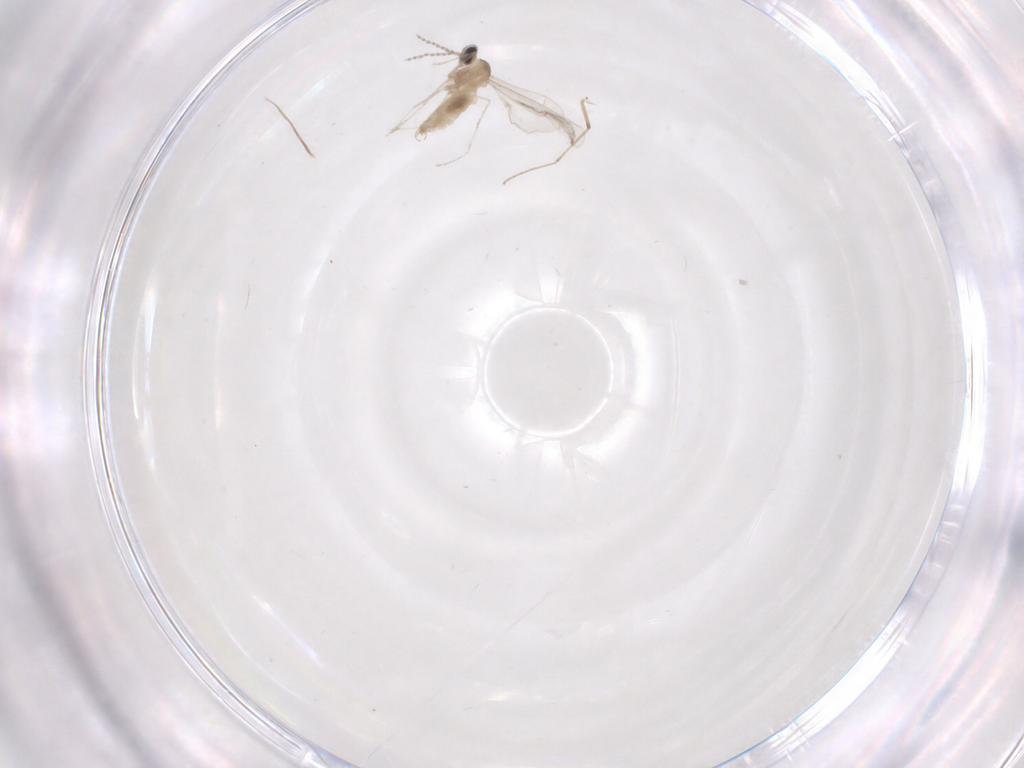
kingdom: Animalia
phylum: Arthropoda
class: Insecta
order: Diptera
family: Cecidomyiidae
